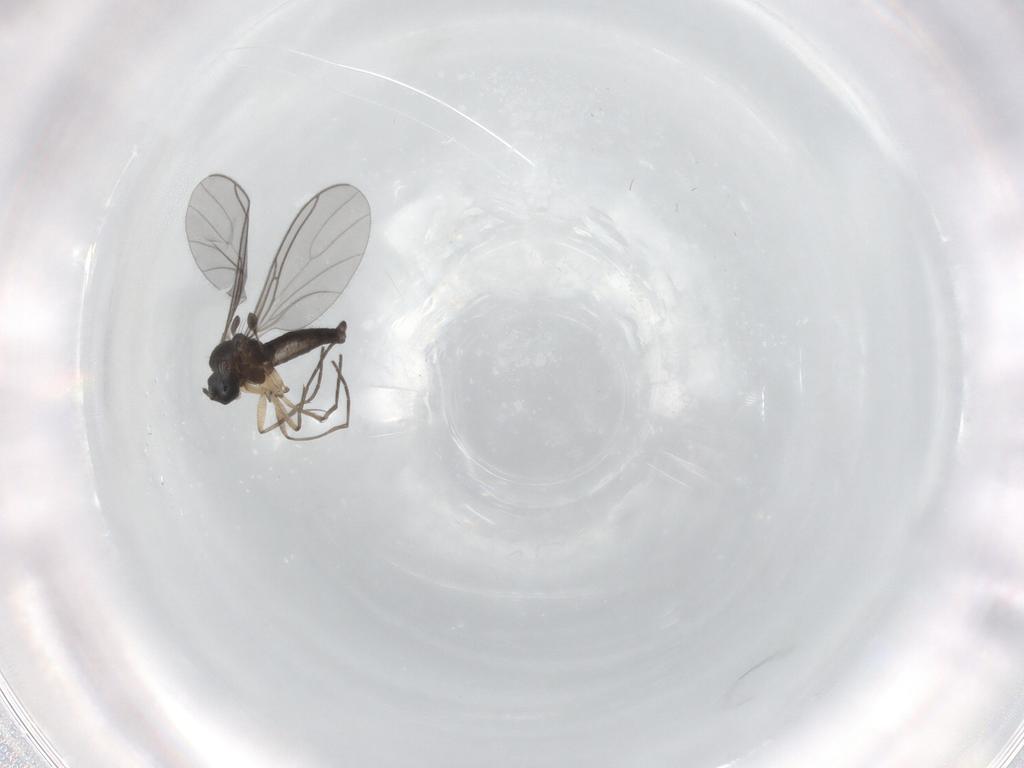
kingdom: Animalia
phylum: Arthropoda
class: Insecta
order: Diptera
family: Sciaridae
